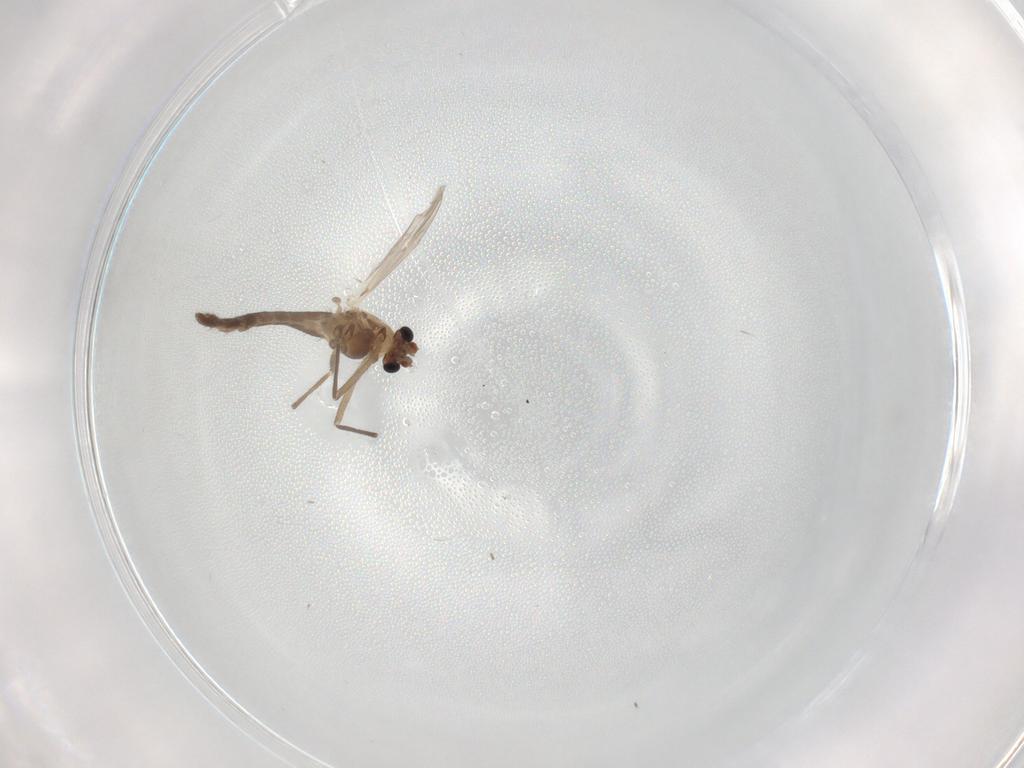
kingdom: Animalia
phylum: Arthropoda
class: Insecta
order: Diptera
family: Chironomidae
